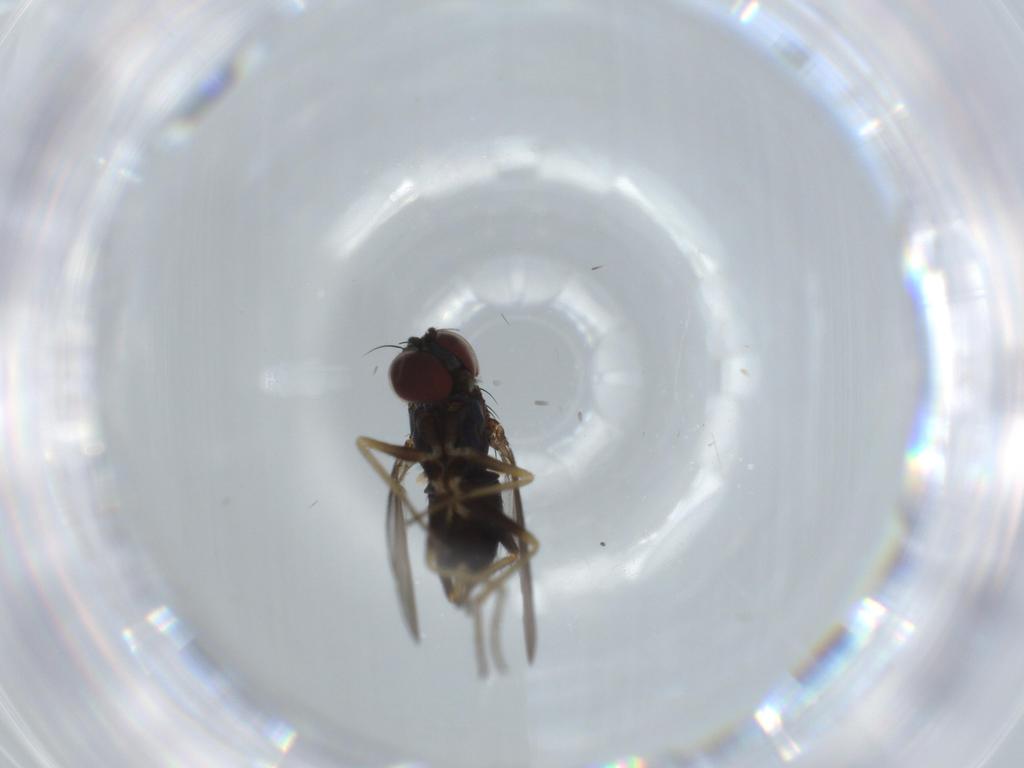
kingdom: Animalia
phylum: Arthropoda
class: Insecta
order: Diptera
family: Dolichopodidae
